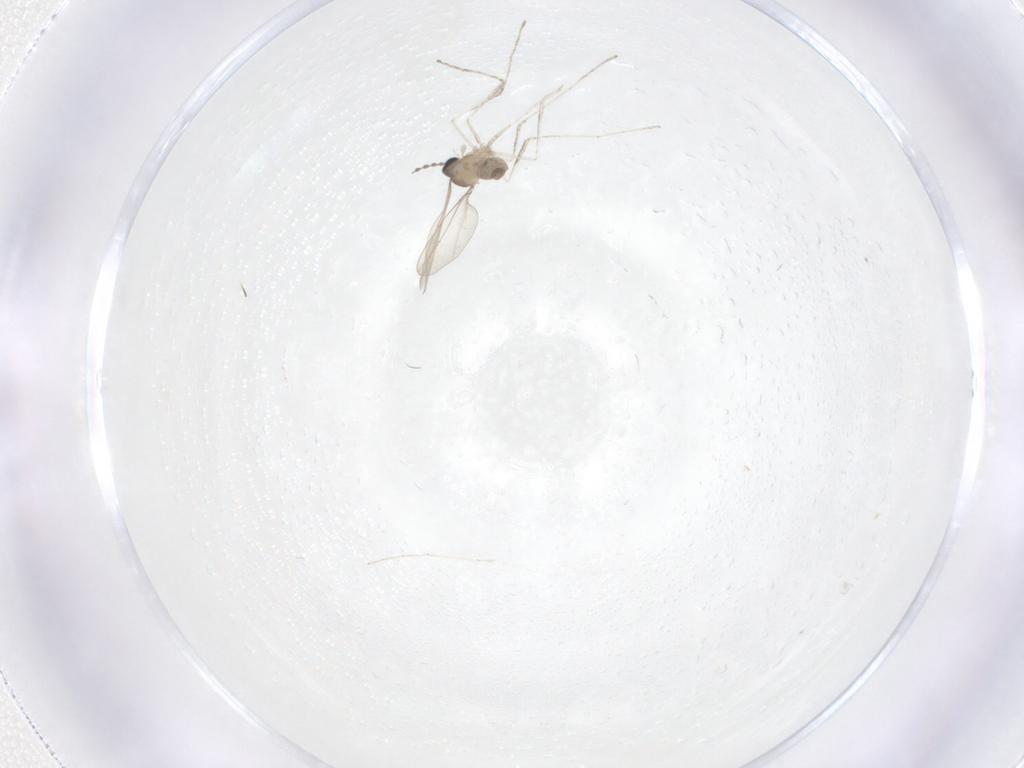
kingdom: Animalia
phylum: Arthropoda
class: Insecta
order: Diptera
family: Cecidomyiidae
